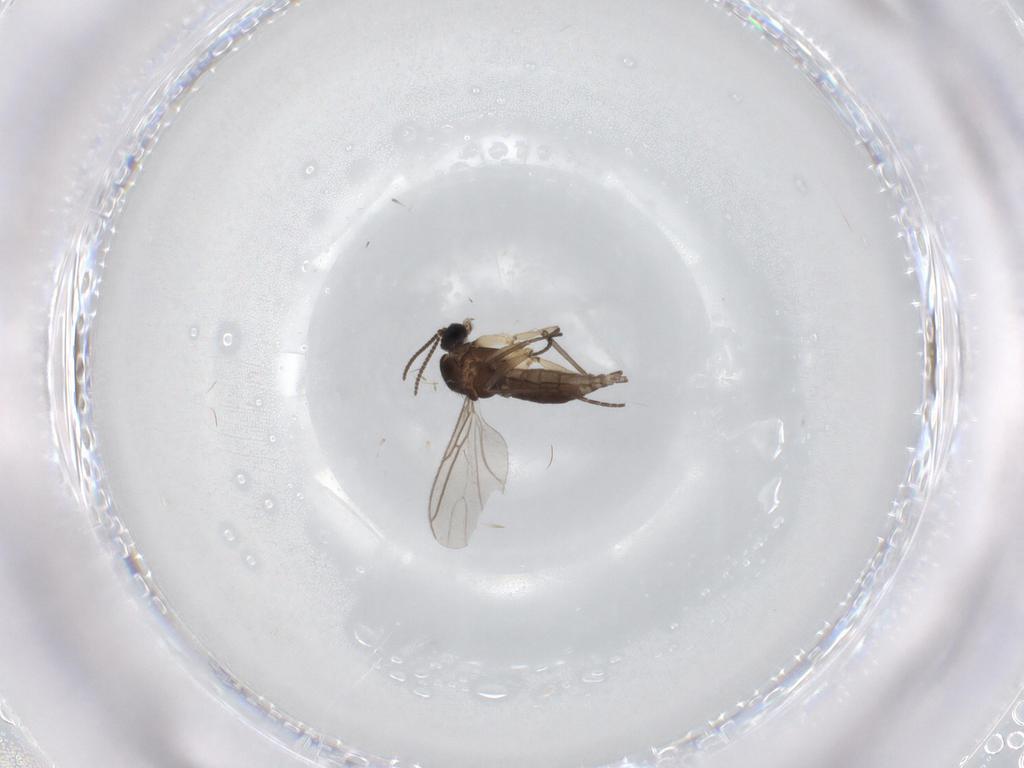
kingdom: Animalia
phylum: Arthropoda
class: Insecta
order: Diptera
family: Sciaridae
